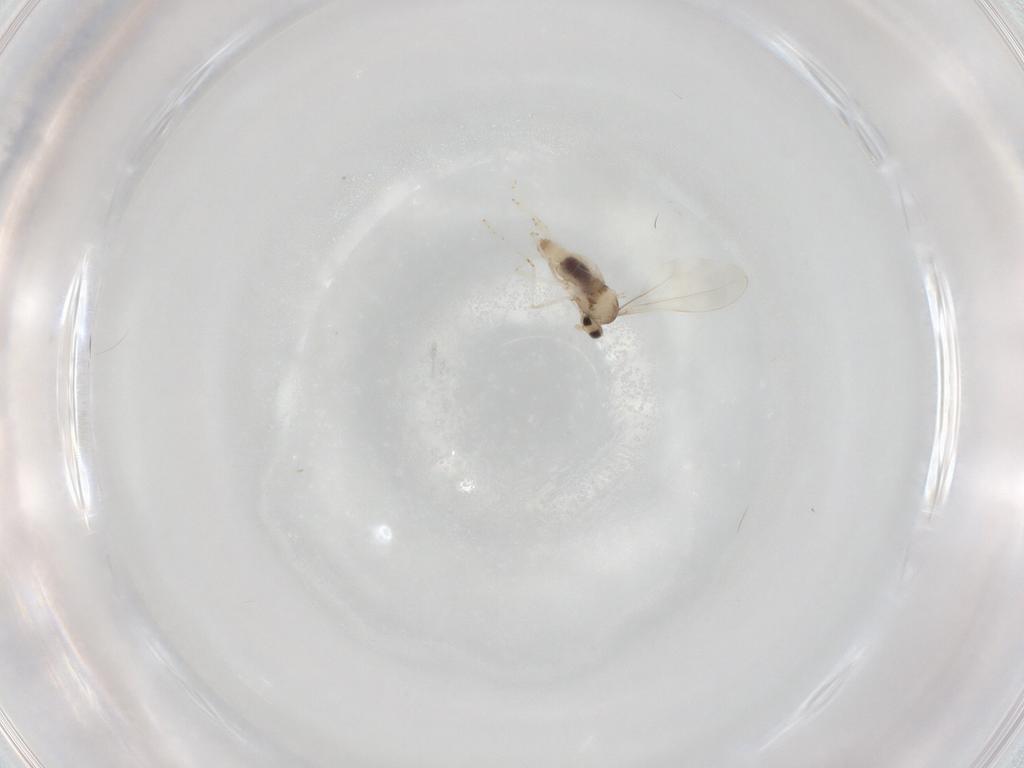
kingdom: Animalia
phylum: Arthropoda
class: Insecta
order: Diptera
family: Cecidomyiidae
